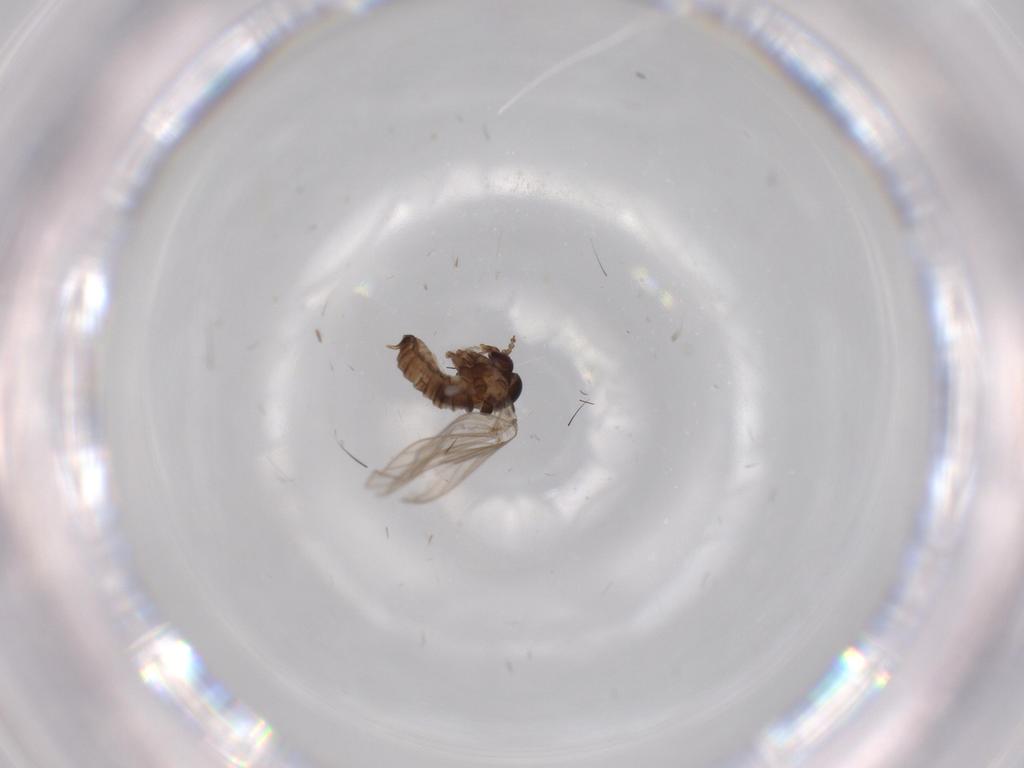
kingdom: Animalia
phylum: Arthropoda
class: Insecta
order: Diptera
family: Psychodidae
